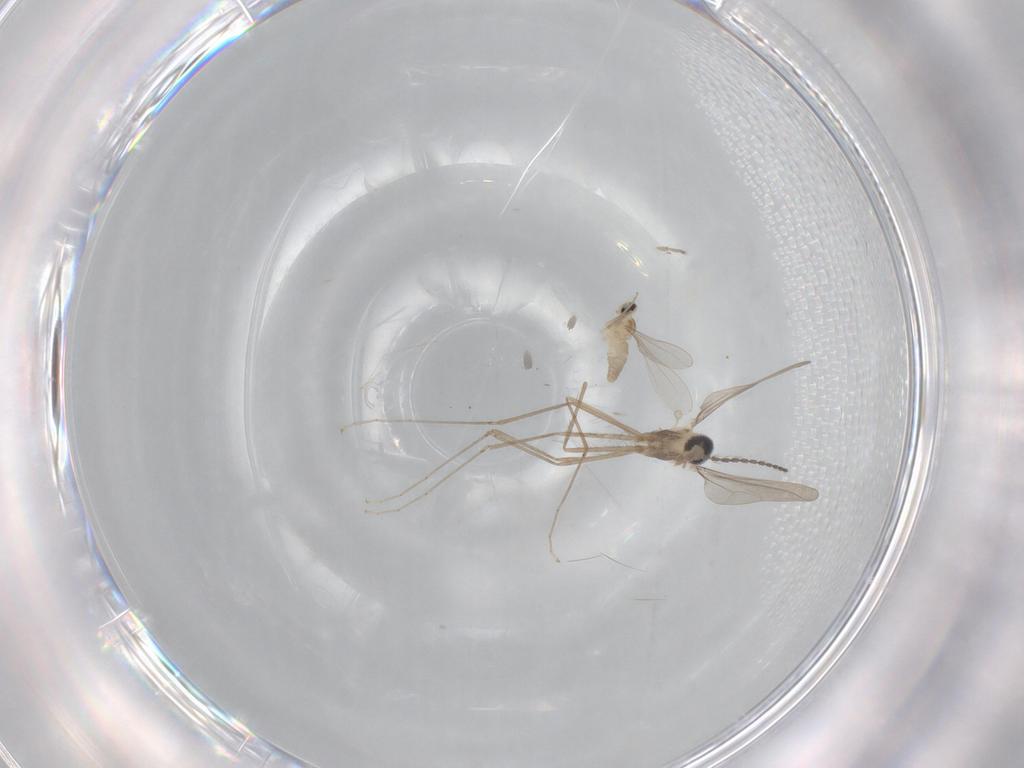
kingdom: Animalia
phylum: Arthropoda
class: Insecta
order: Diptera
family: Cecidomyiidae
